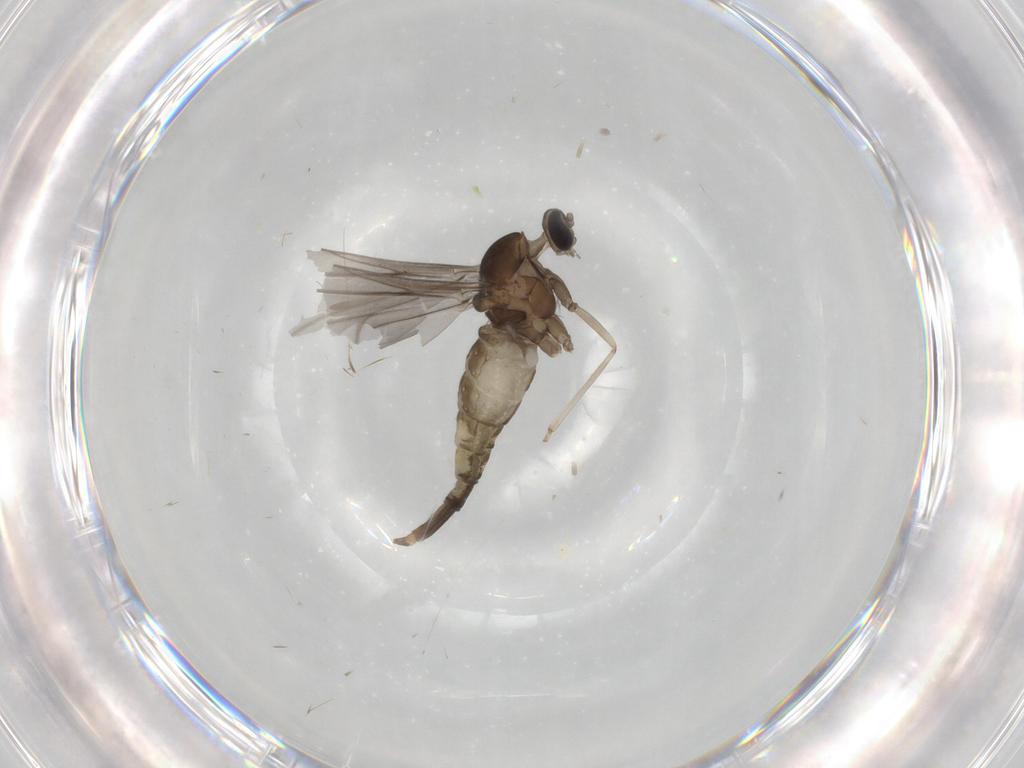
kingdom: Animalia
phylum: Arthropoda
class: Insecta
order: Diptera
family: Cecidomyiidae
